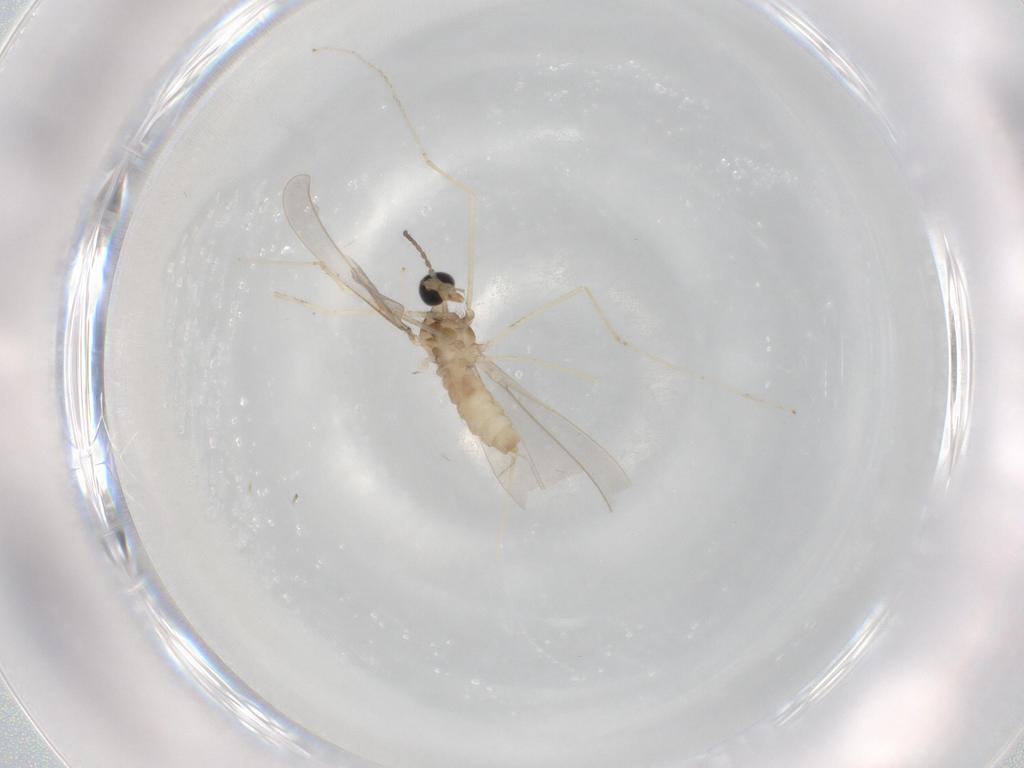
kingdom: Animalia
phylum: Arthropoda
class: Insecta
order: Diptera
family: Cecidomyiidae
